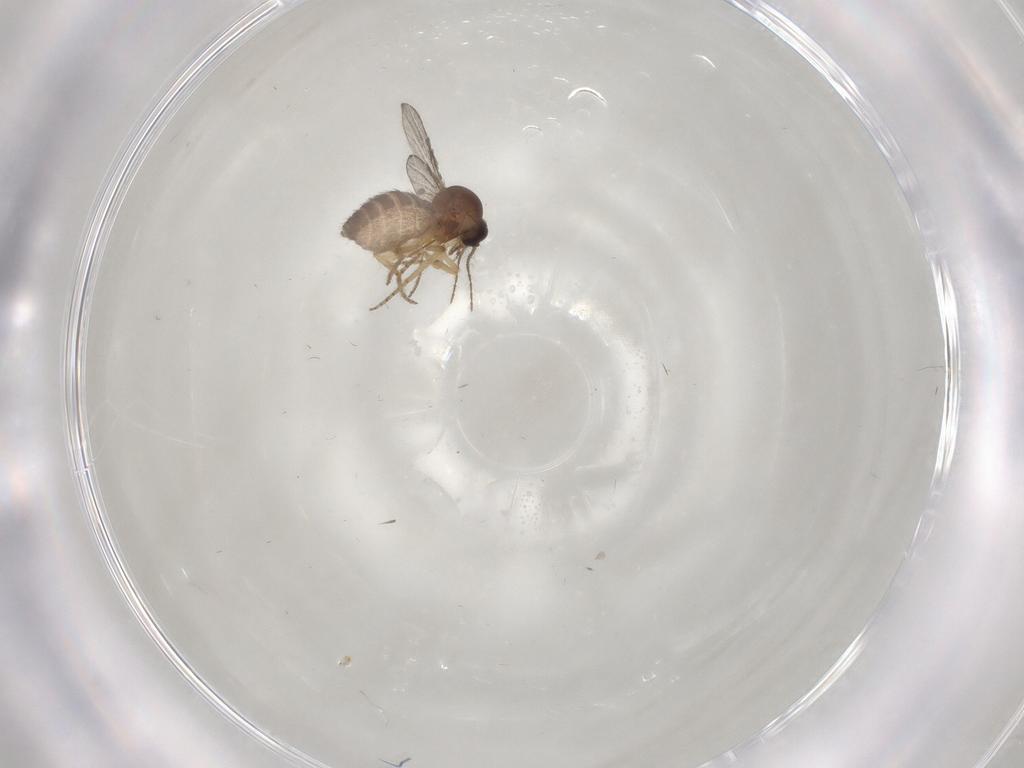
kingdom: Animalia
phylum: Arthropoda
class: Insecta
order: Diptera
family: Ceratopogonidae
